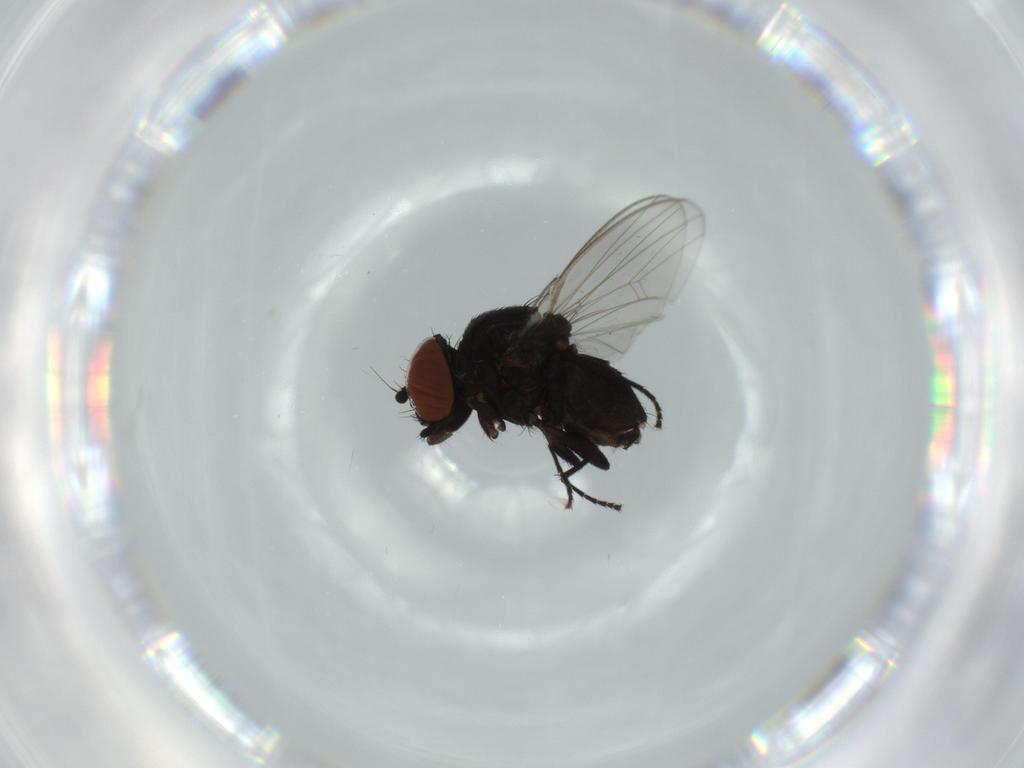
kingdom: Animalia
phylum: Arthropoda
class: Insecta
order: Diptera
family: Milichiidae
